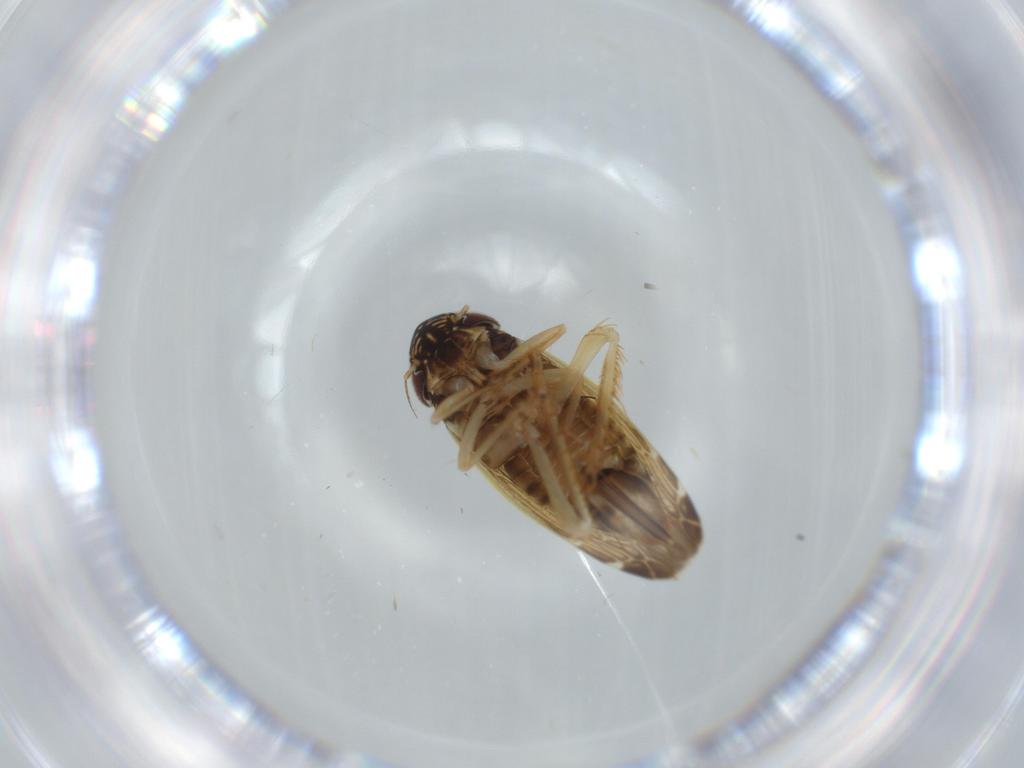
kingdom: Animalia
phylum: Arthropoda
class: Insecta
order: Hemiptera
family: Cicadellidae
